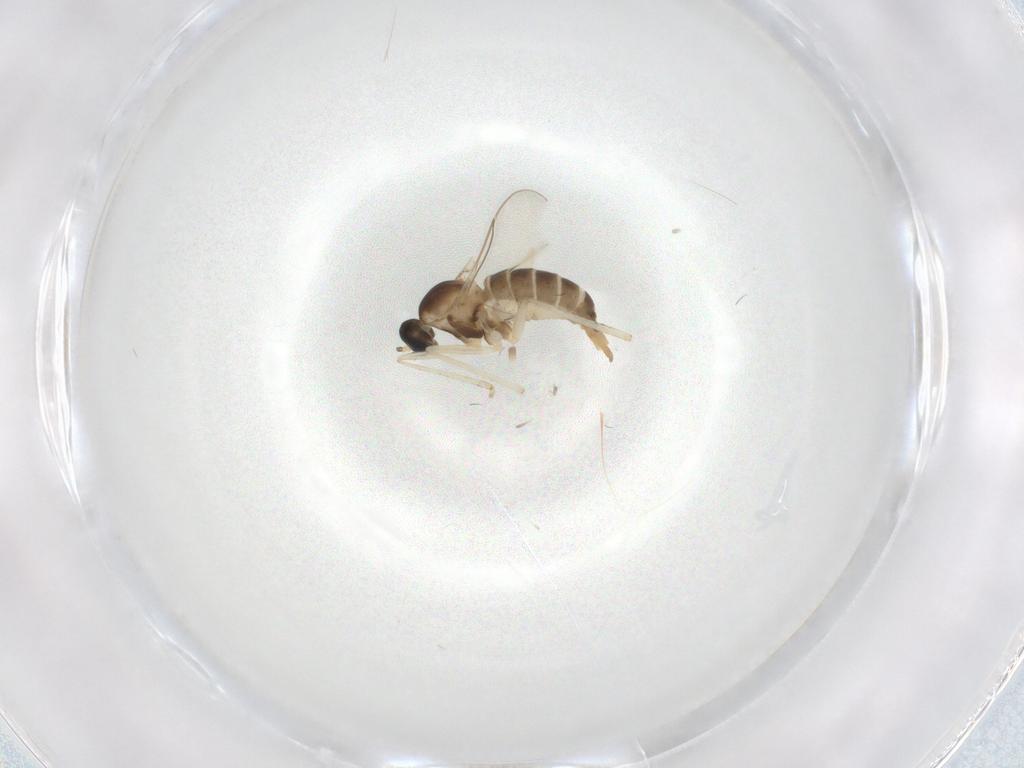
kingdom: Animalia
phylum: Arthropoda
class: Insecta
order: Diptera
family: Cecidomyiidae
